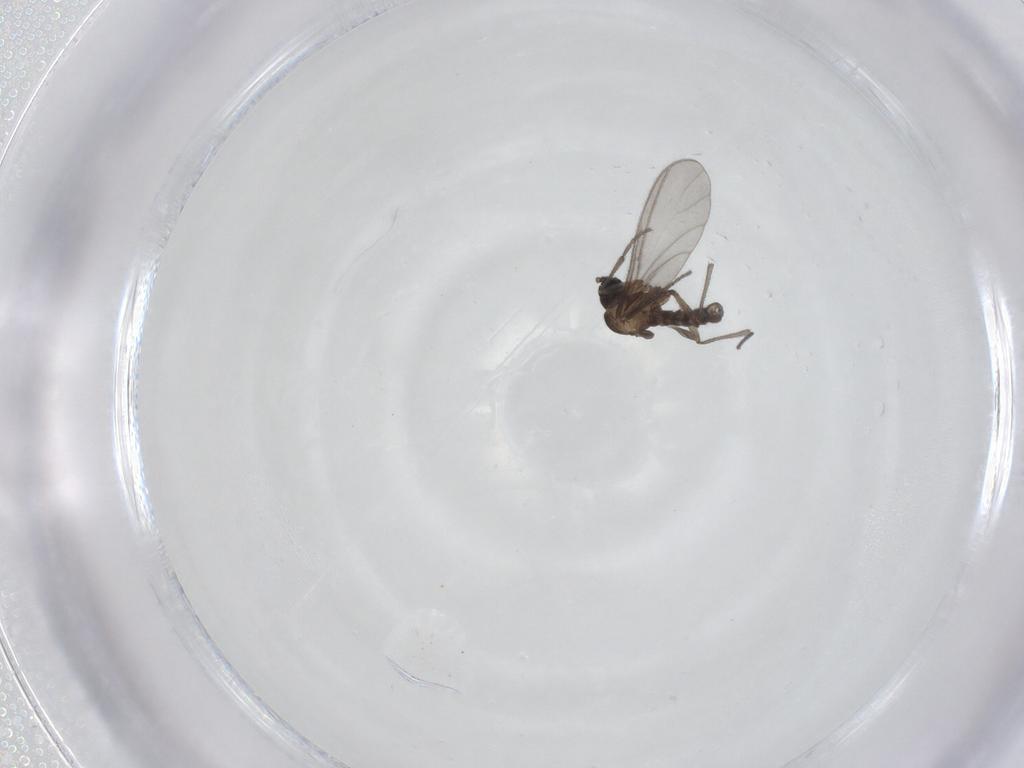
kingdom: Animalia
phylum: Arthropoda
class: Insecta
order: Diptera
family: Sciaridae
